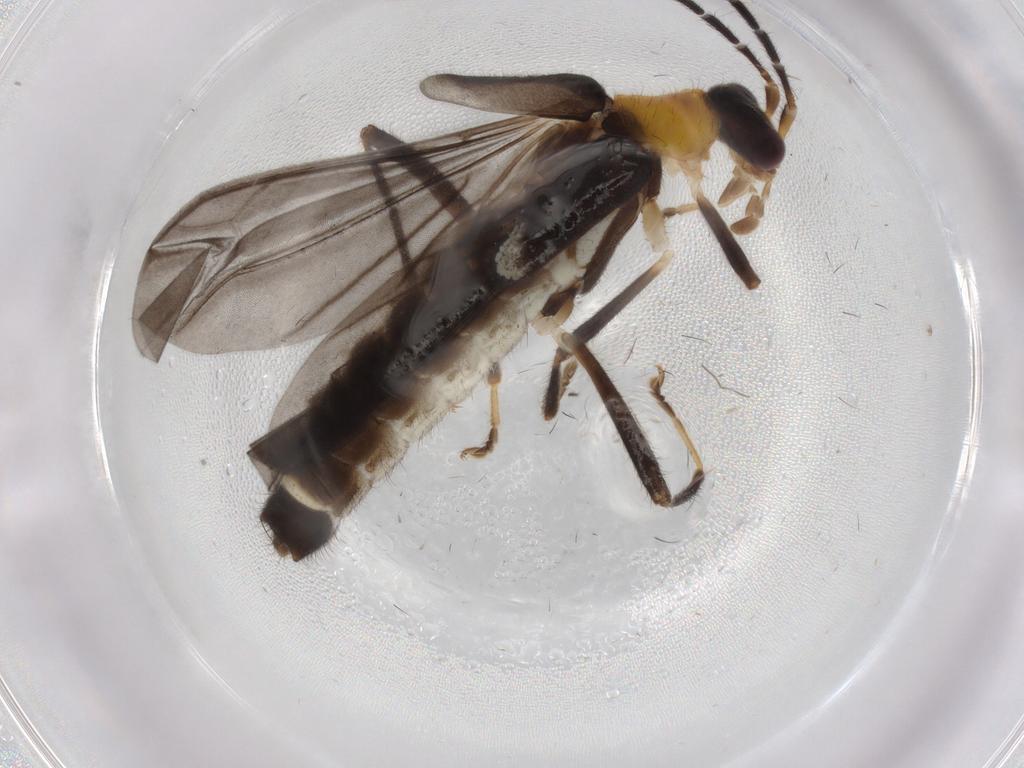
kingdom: Animalia
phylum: Arthropoda
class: Insecta
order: Coleoptera
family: Cantharidae
